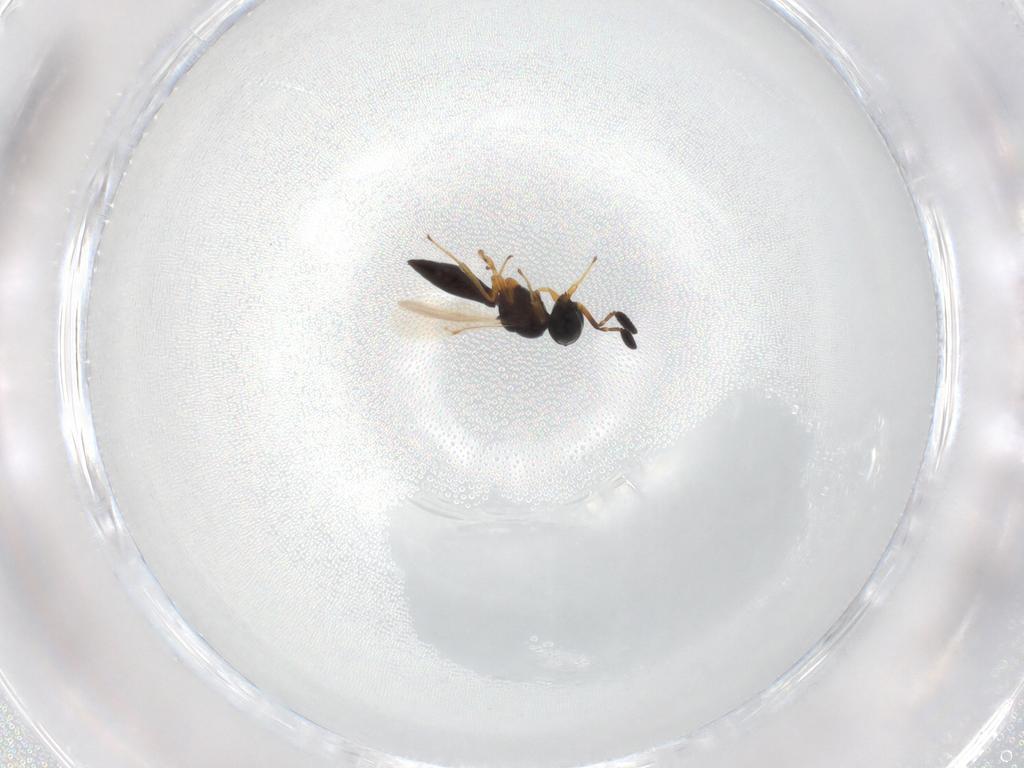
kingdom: Animalia
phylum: Arthropoda
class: Insecta
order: Hymenoptera
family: Scelionidae
